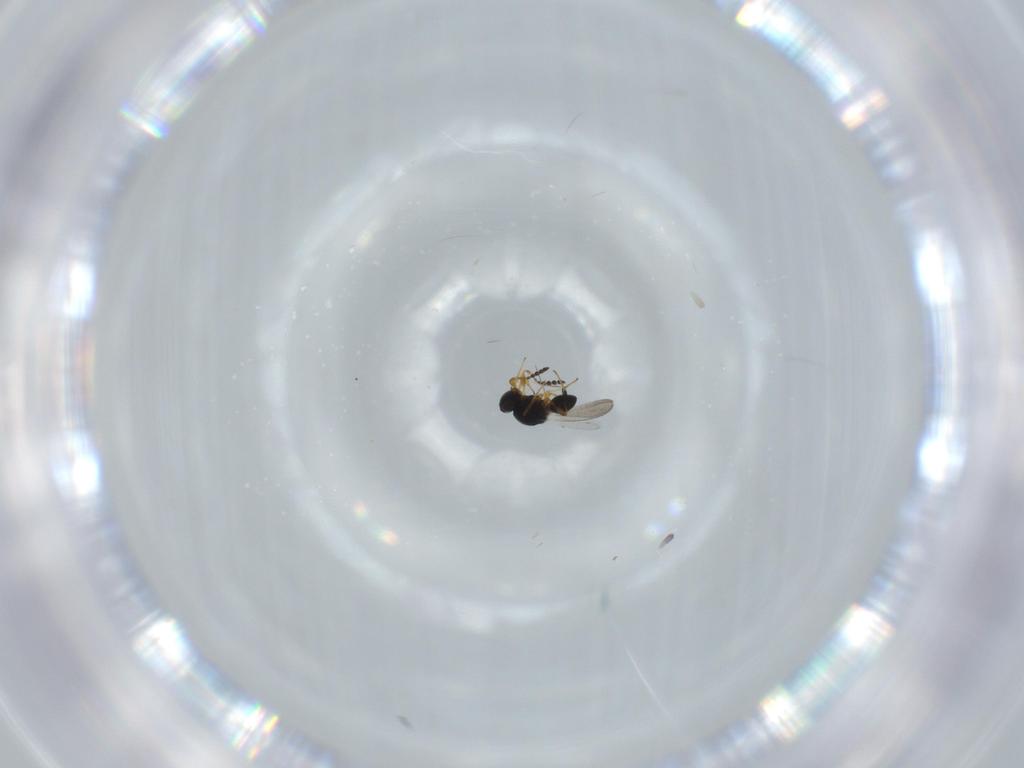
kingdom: Animalia
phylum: Arthropoda
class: Insecta
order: Hymenoptera
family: Platygastridae
